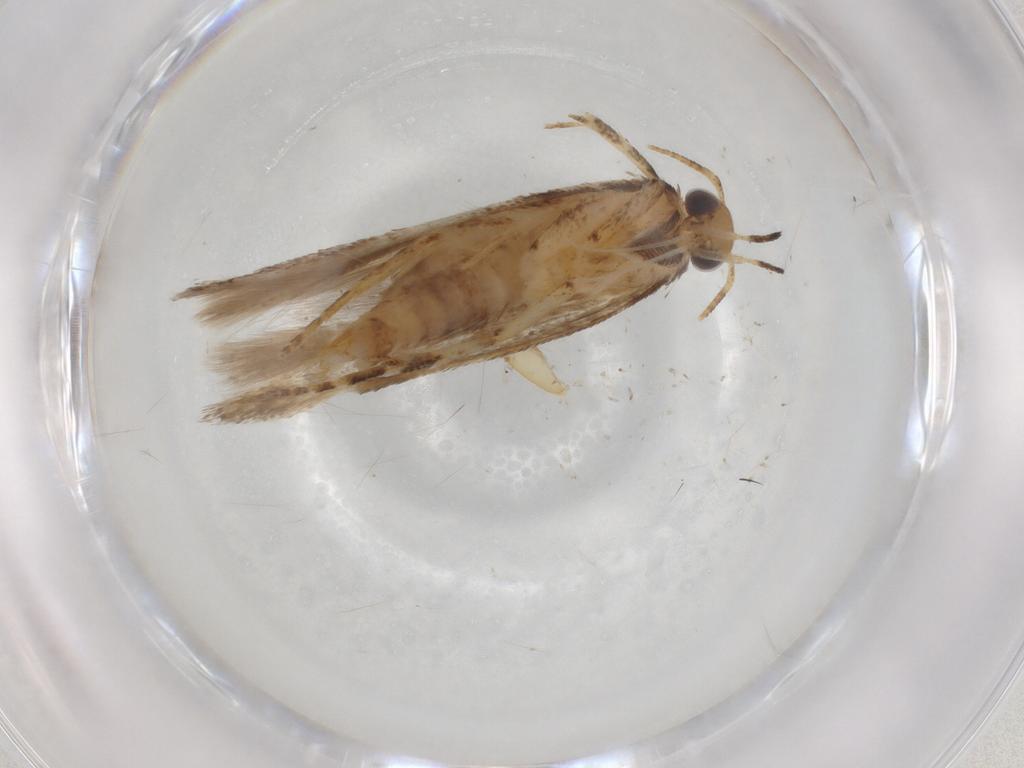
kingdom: Animalia
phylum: Arthropoda
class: Insecta
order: Lepidoptera
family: Gelechiidae
